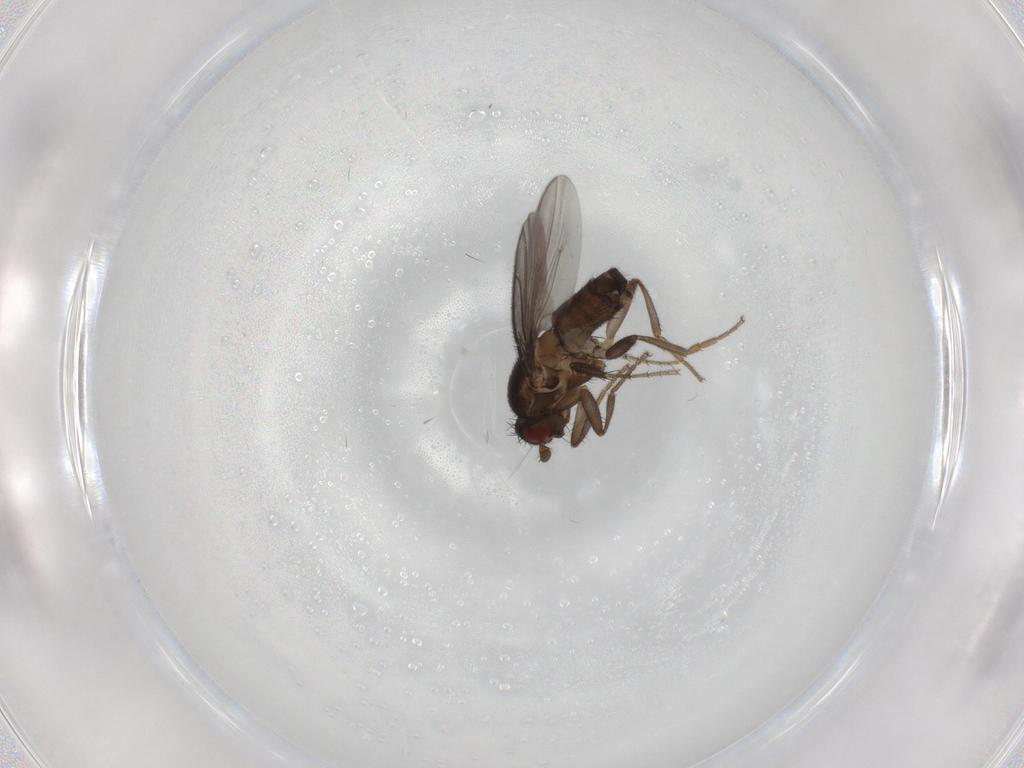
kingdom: Animalia
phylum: Arthropoda
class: Insecta
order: Diptera
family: Sphaeroceridae
